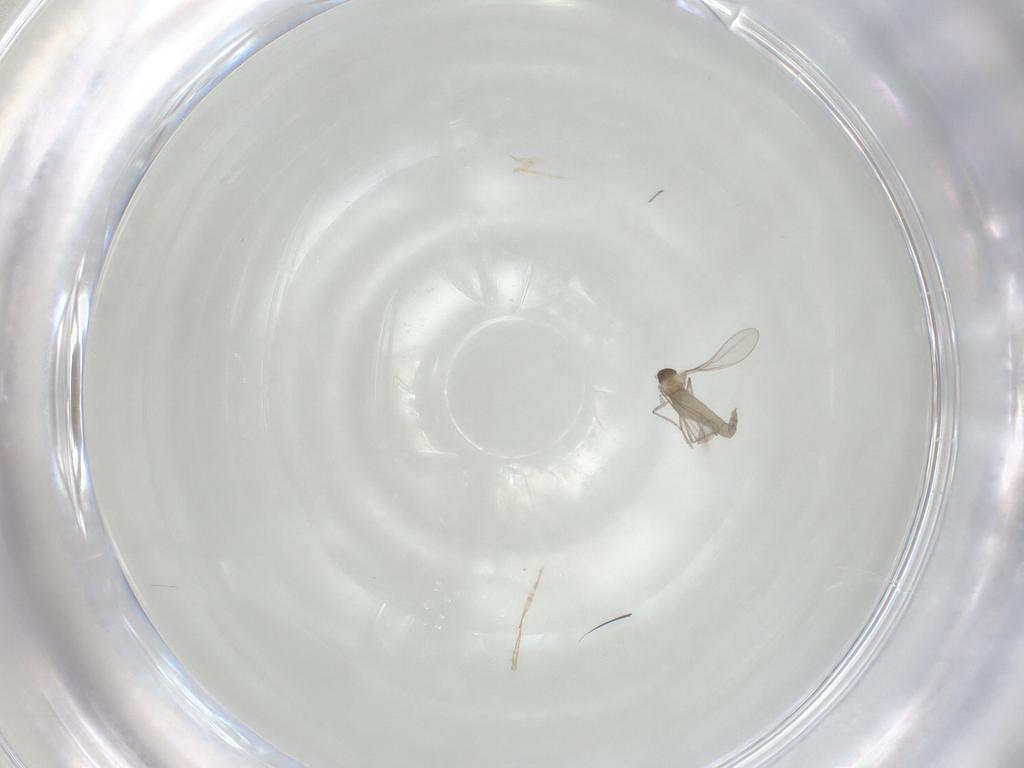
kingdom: Animalia
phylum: Arthropoda
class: Insecta
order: Diptera
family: Cecidomyiidae
